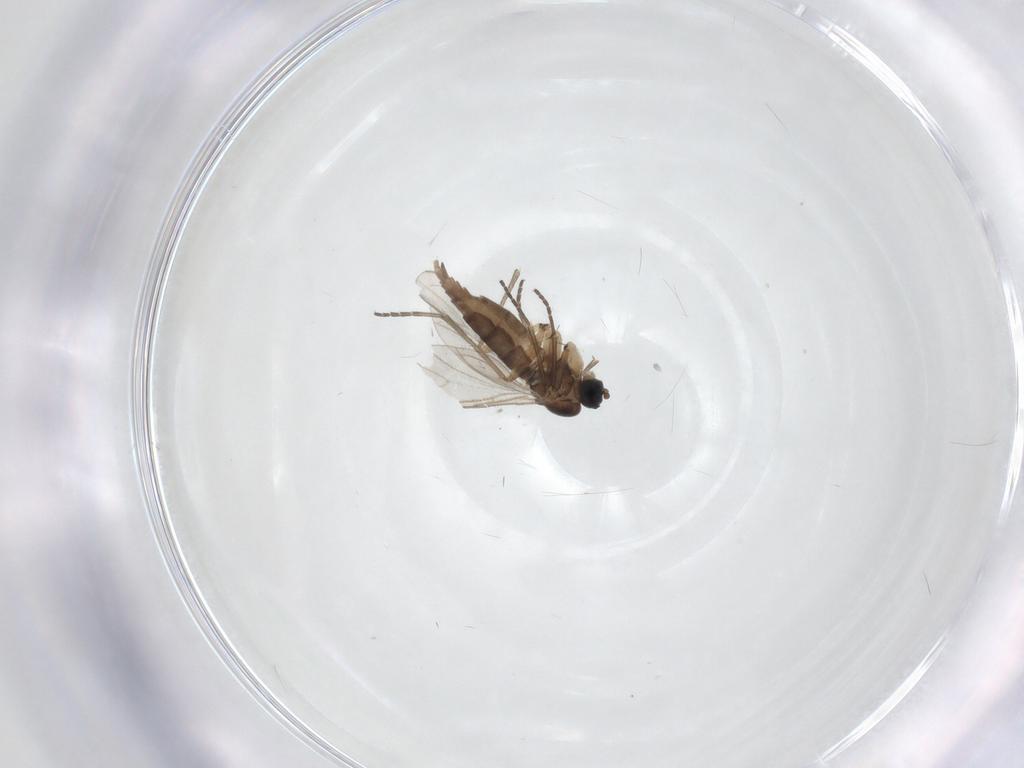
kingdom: Animalia
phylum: Arthropoda
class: Insecta
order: Diptera
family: Sciaridae
